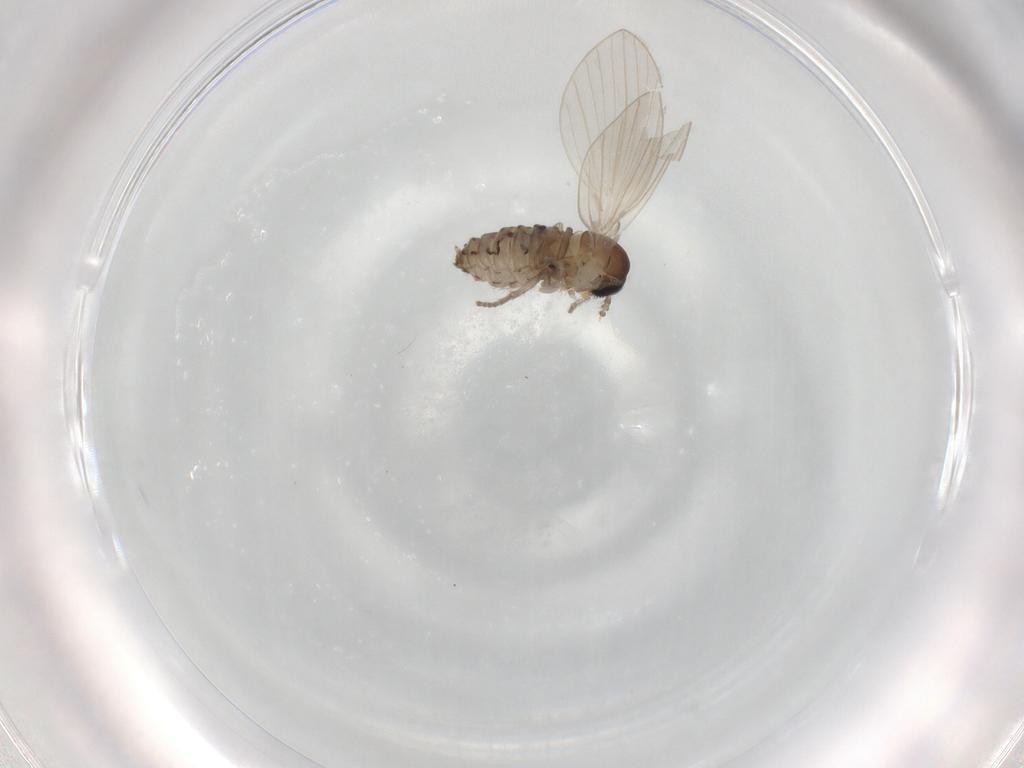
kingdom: Animalia
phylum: Arthropoda
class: Insecta
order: Diptera
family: Psychodidae
